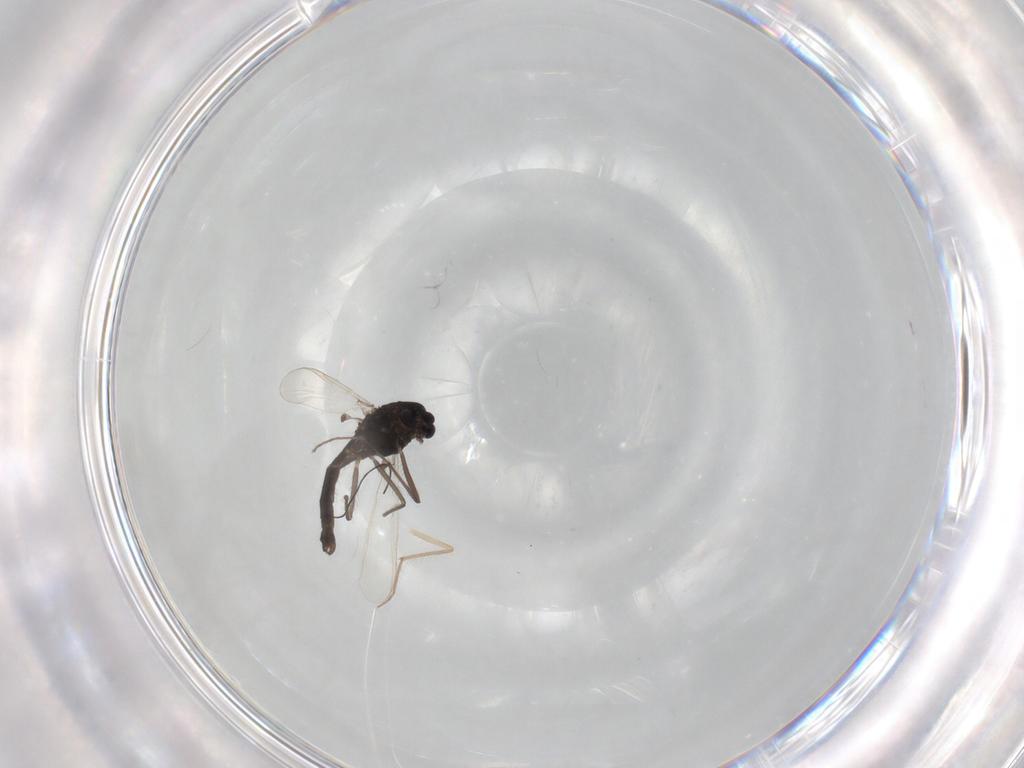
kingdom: Animalia
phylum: Arthropoda
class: Insecta
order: Diptera
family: Chironomidae
